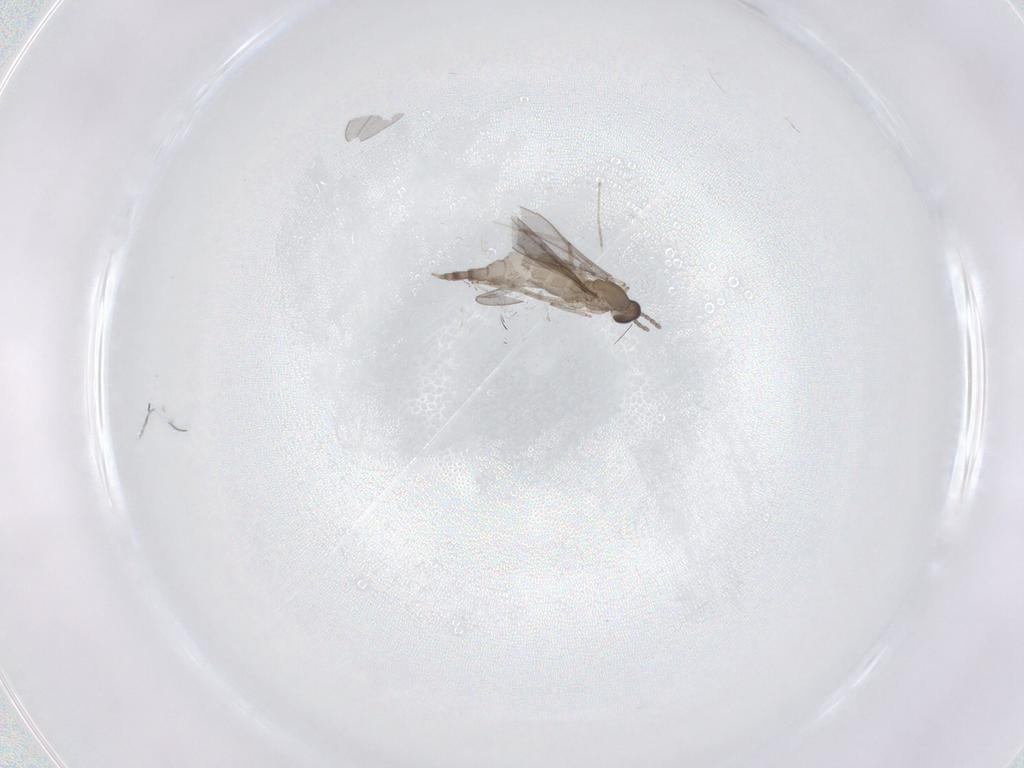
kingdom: Animalia
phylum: Arthropoda
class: Insecta
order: Diptera
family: Cecidomyiidae
